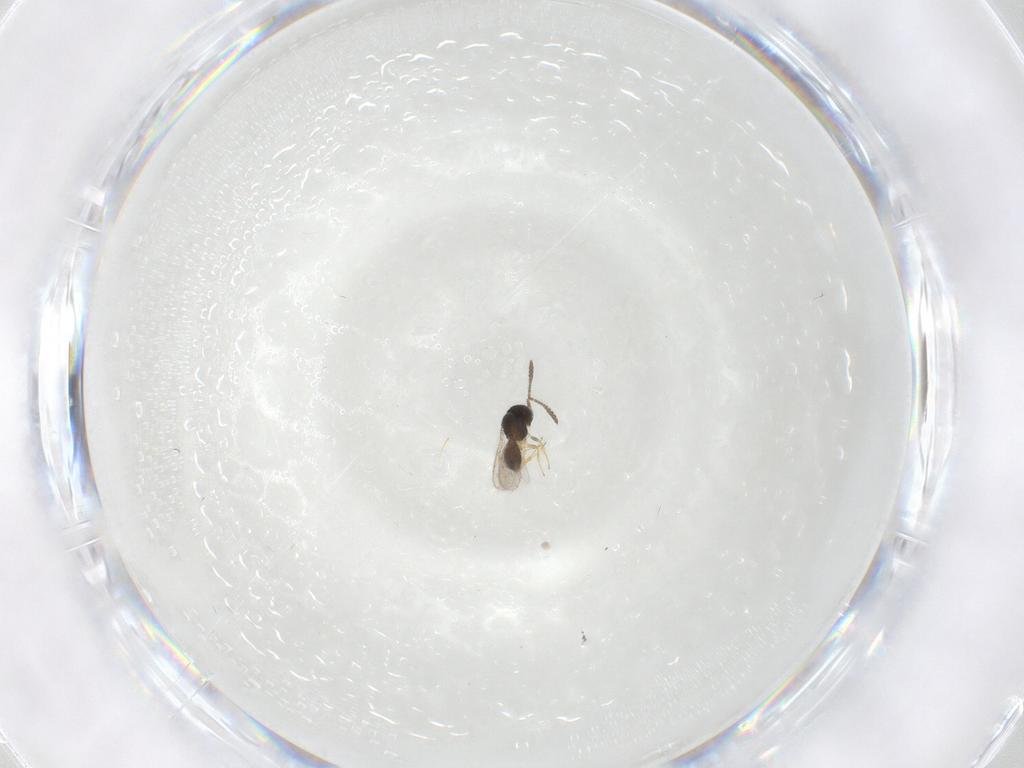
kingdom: Animalia
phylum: Arthropoda
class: Insecta
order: Hymenoptera
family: Scelionidae
